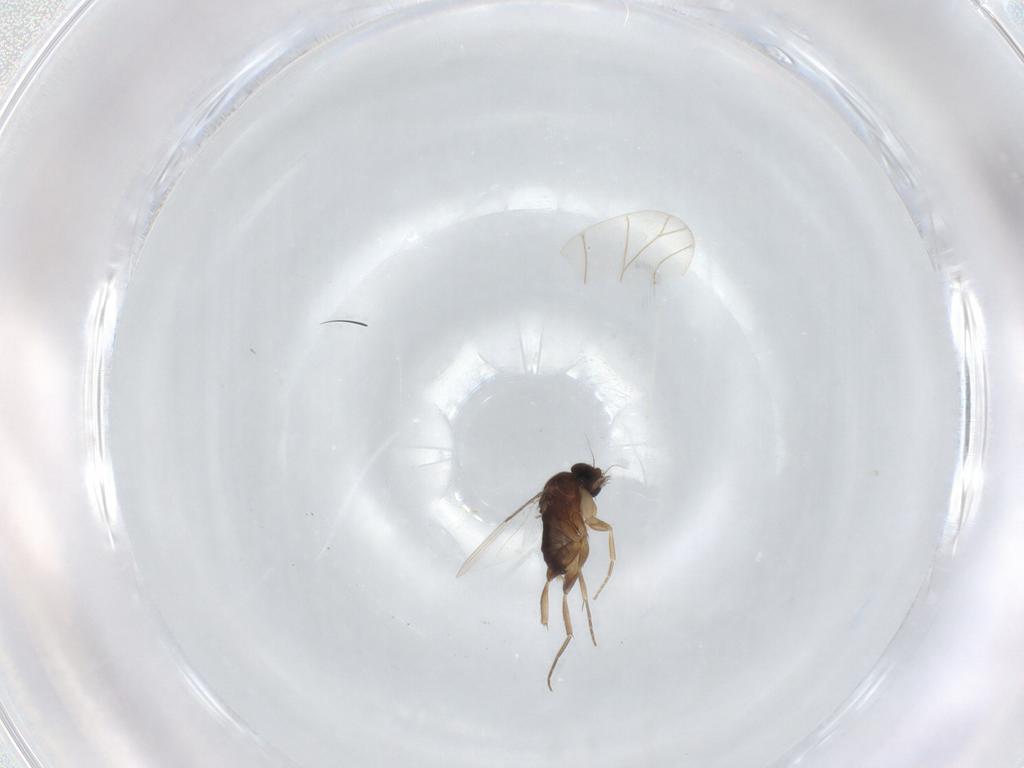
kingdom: Animalia
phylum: Arthropoda
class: Insecta
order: Diptera
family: Phoridae
